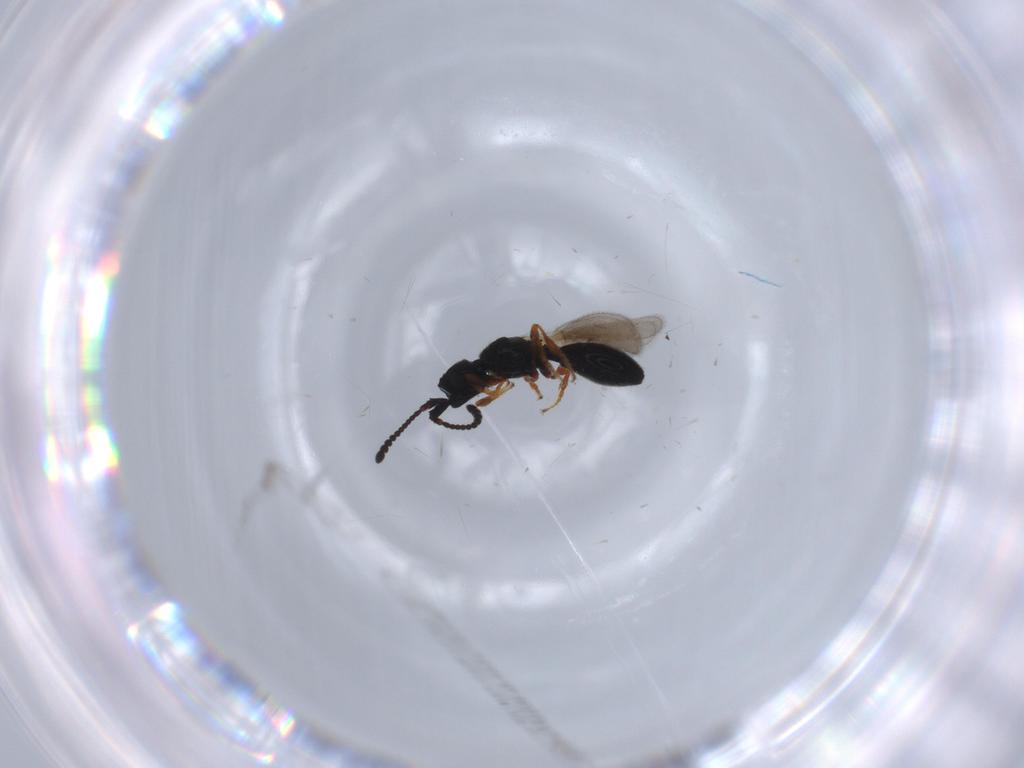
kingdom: Animalia
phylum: Arthropoda
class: Insecta
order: Hymenoptera
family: Diapriidae
